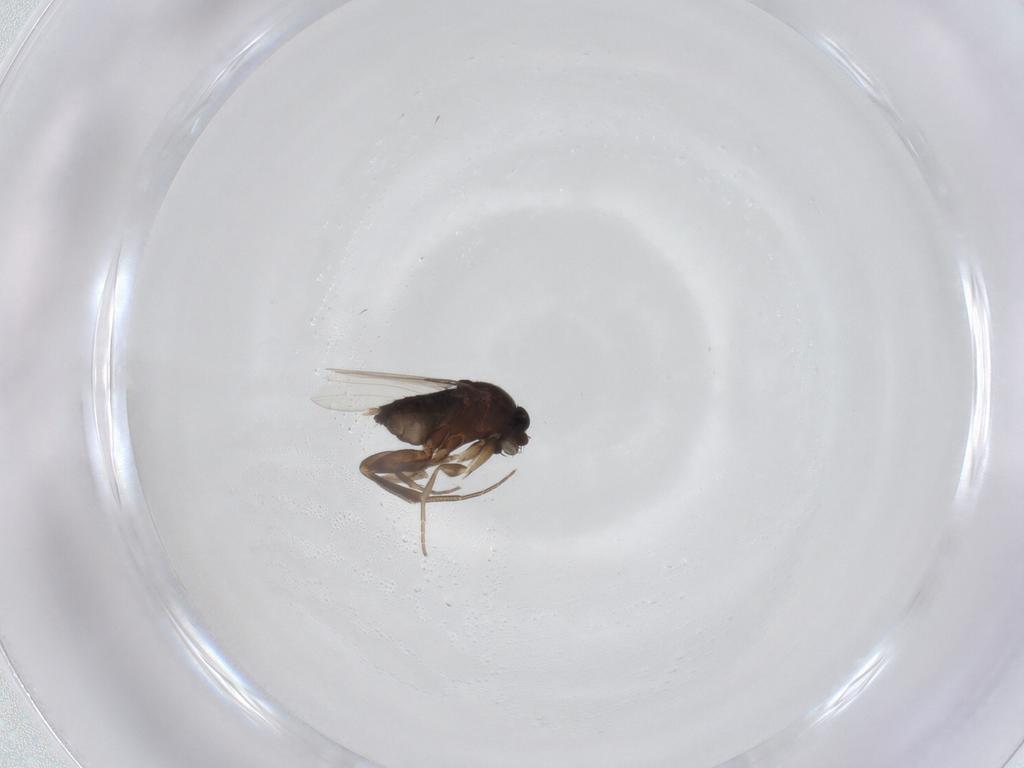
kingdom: Animalia
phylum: Arthropoda
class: Insecta
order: Diptera
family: Phoridae
